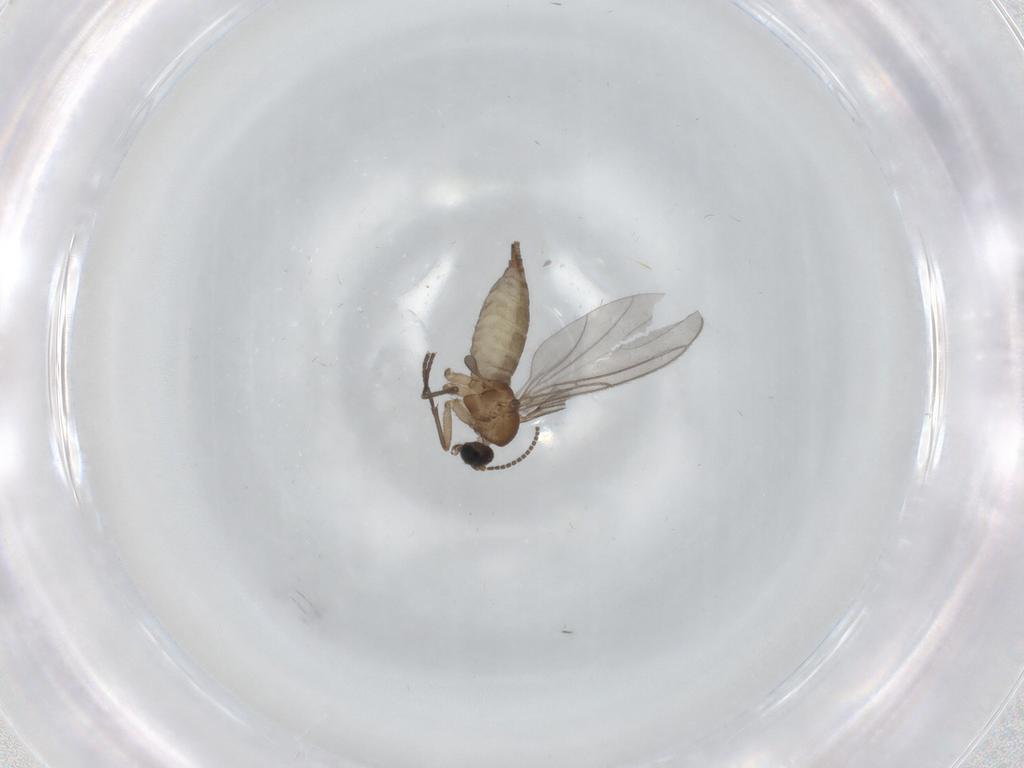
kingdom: Animalia
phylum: Arthropoda
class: Insecta
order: Diptera
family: Sciaridae
